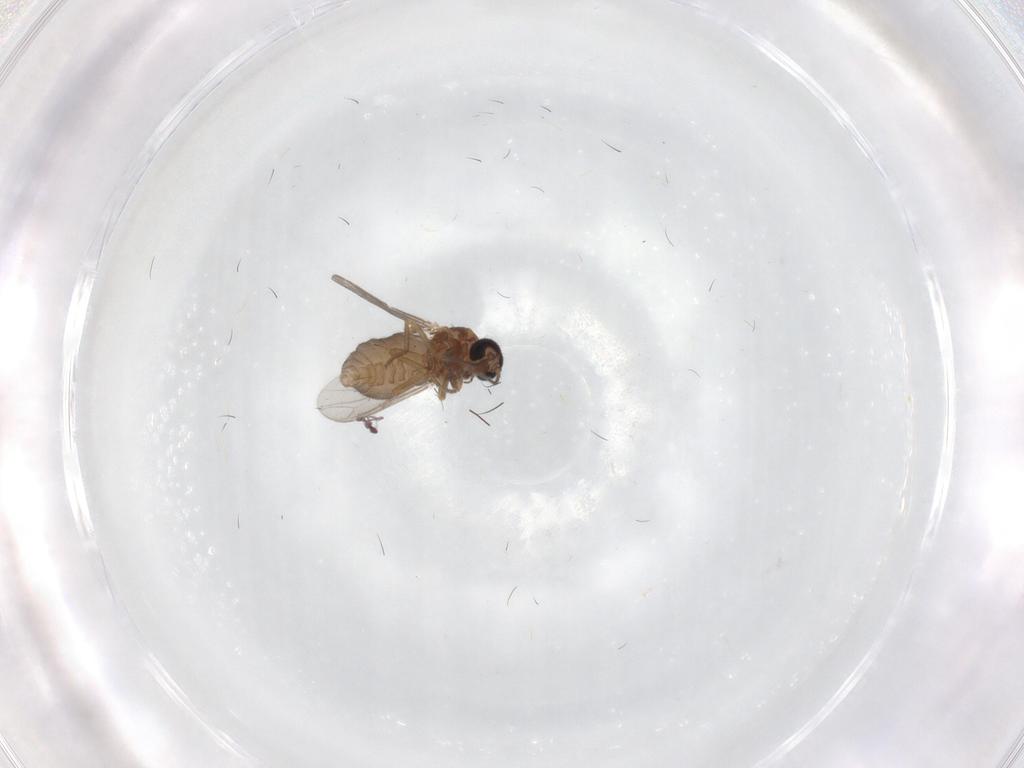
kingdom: Animalia
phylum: Arthropoda
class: Insecta
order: Diptera
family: Ceratopogonidae
